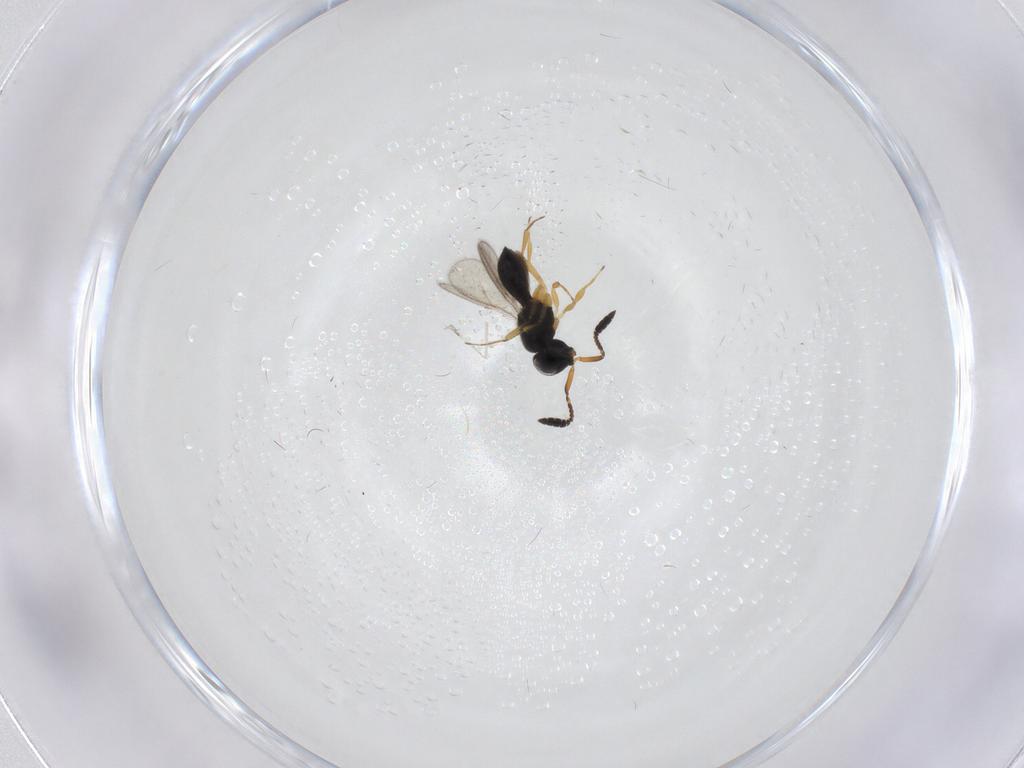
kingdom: Animalia
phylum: Arthropoda
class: Insecta
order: Hymenoptera
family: Scelionidae
